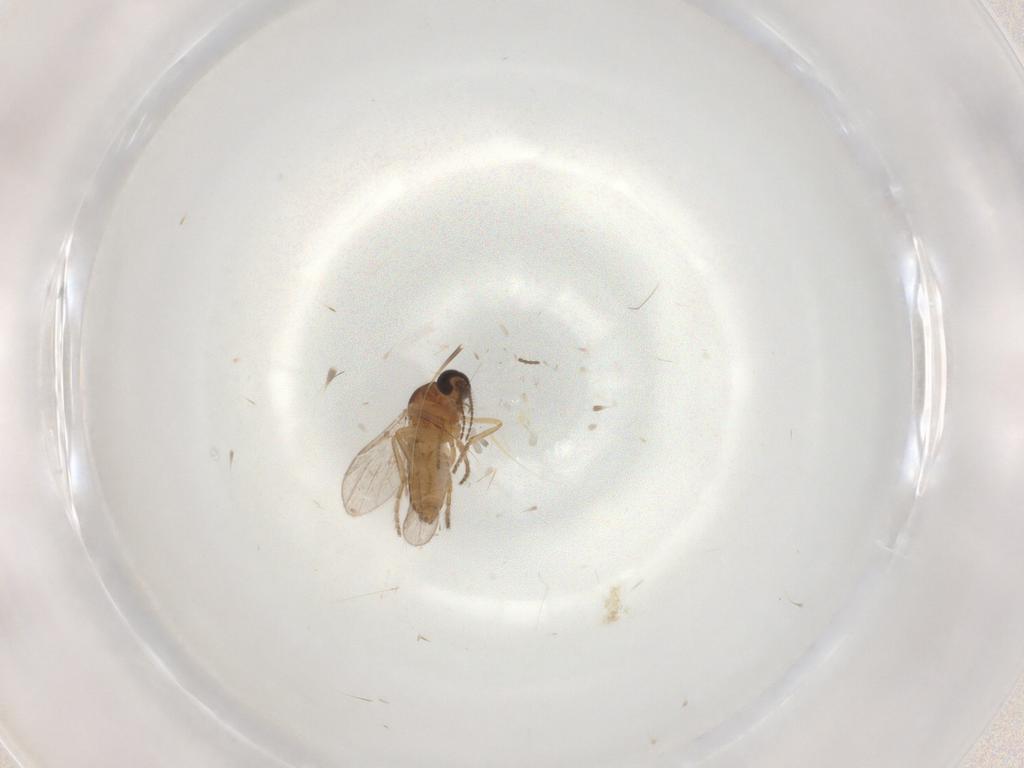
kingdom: Animalia
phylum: Arthropoda
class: Insecta
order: Diptera
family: Ceratopogonidae
